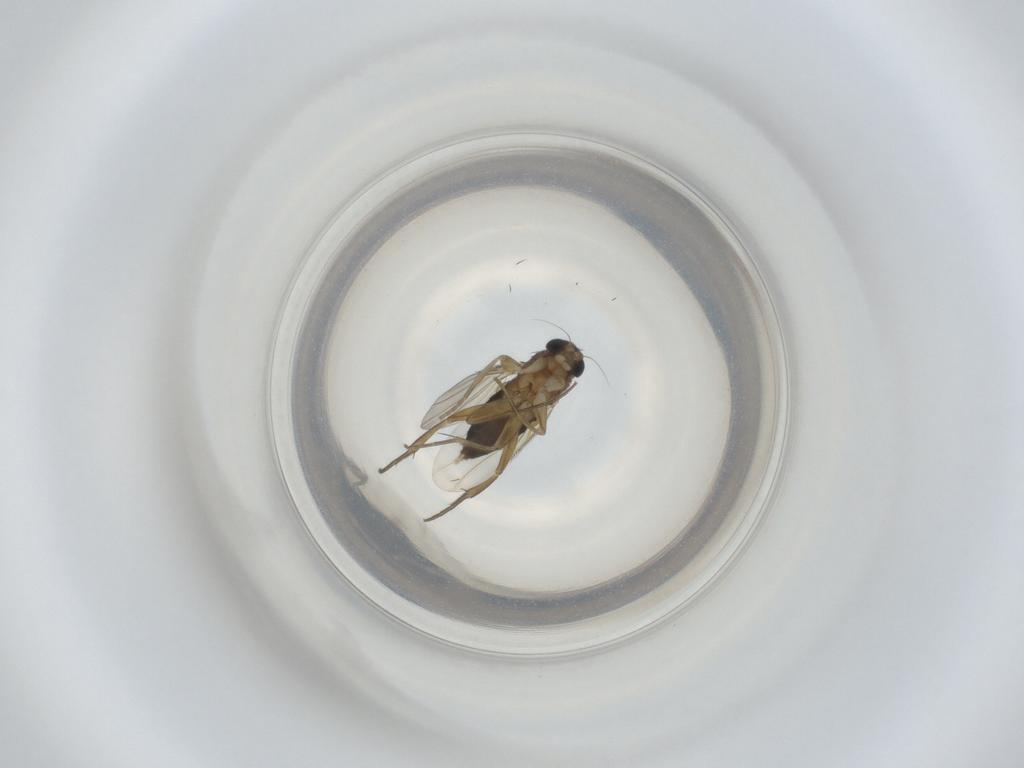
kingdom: Animalia
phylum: Arthropoda
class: Insecta
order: Diptera
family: Phoridae
